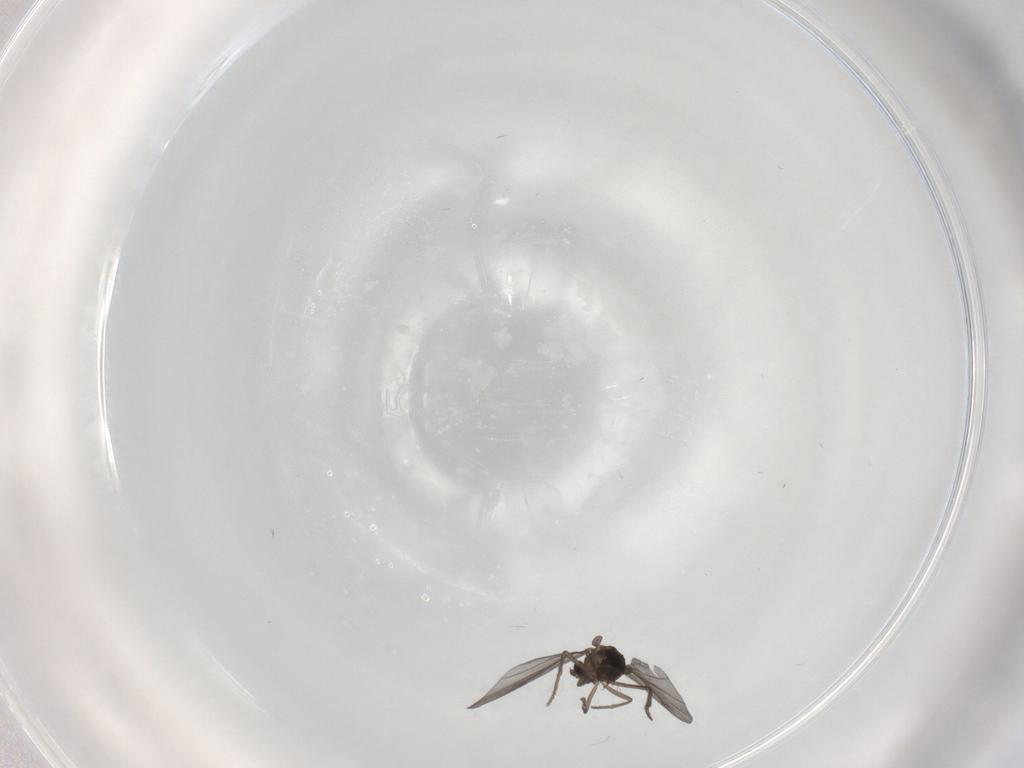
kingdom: Animalia
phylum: Arthropoda
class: Insecta
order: Diptera
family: Phoridae
